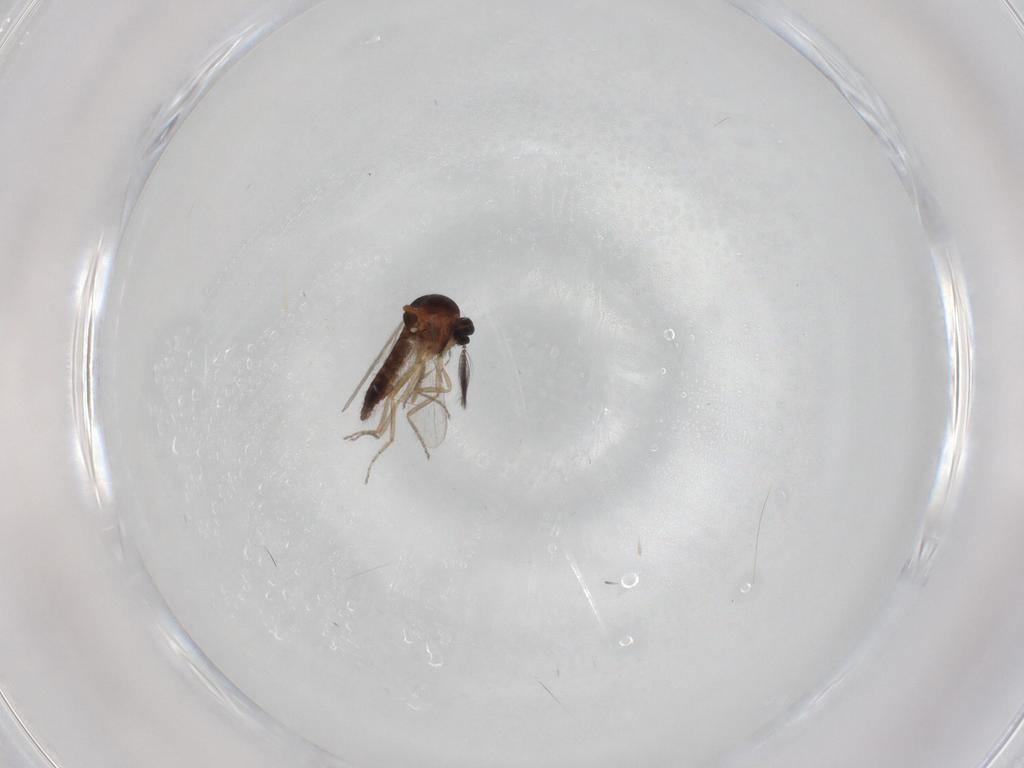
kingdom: Animalia
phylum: Arthropoda
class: Insecta
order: Diptera
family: Ceratopogonidae
